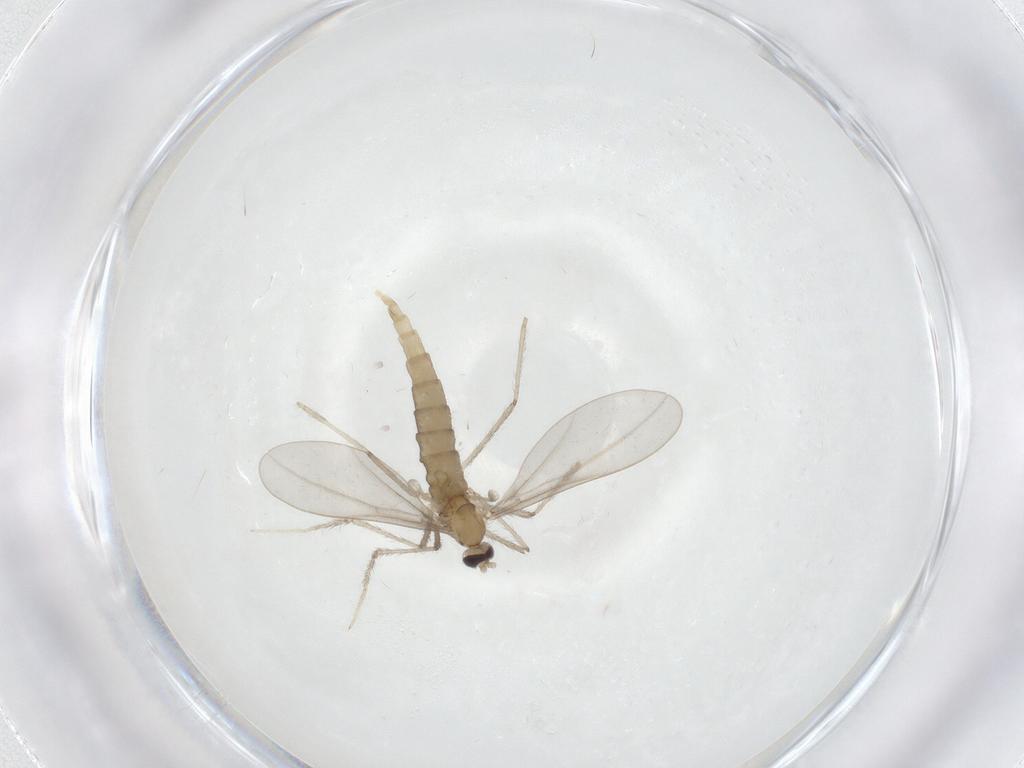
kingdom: Animalia
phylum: Arthropoda
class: Insecta
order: Diptera
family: Cecidomyiidae
